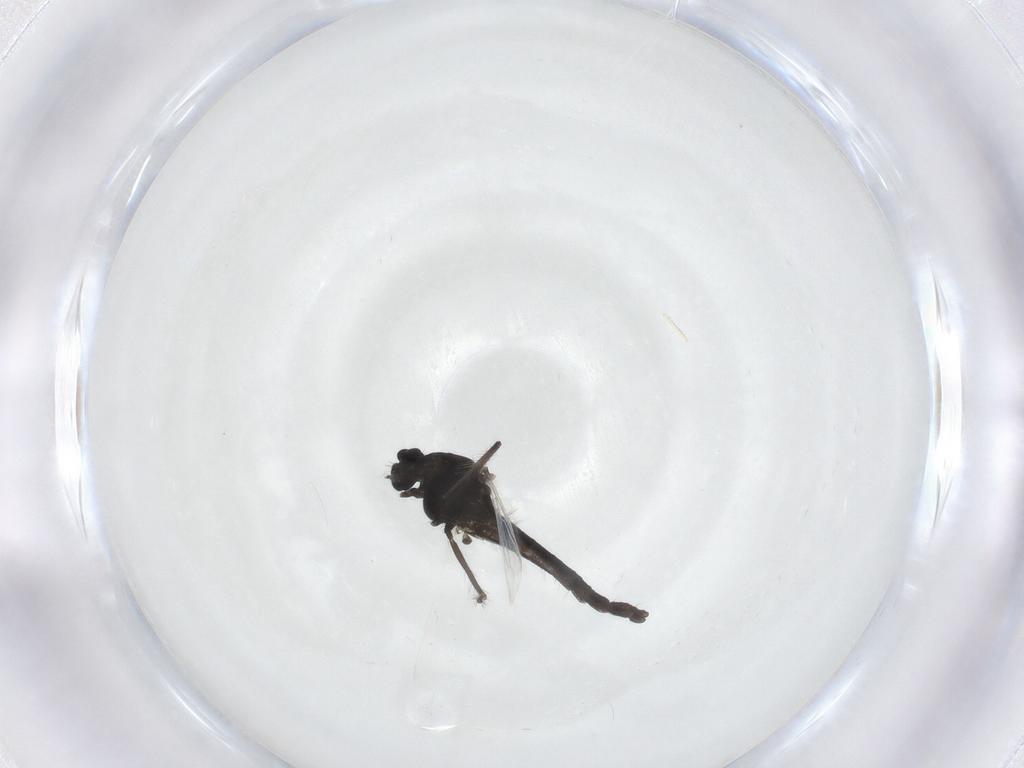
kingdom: Animalia
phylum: Arthropoda
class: Insecta
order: Diptera
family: Cecidomyiidae
